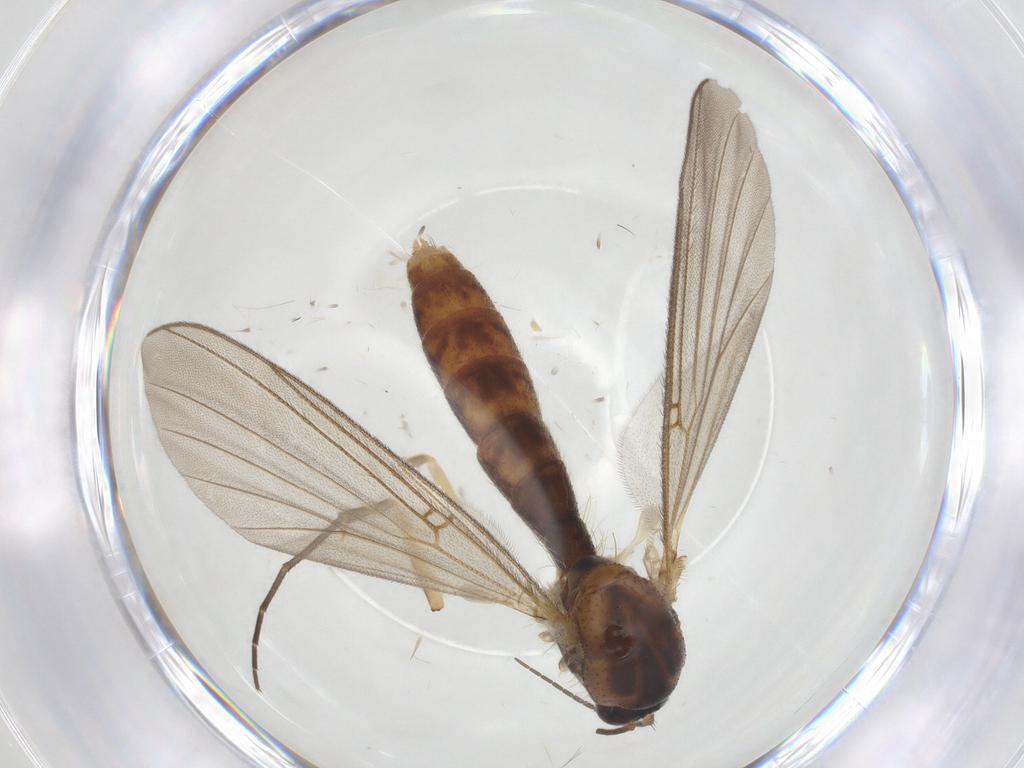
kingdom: Animalia
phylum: Arthropoda
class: Insecta
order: Diptera
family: Mycetophilidae
